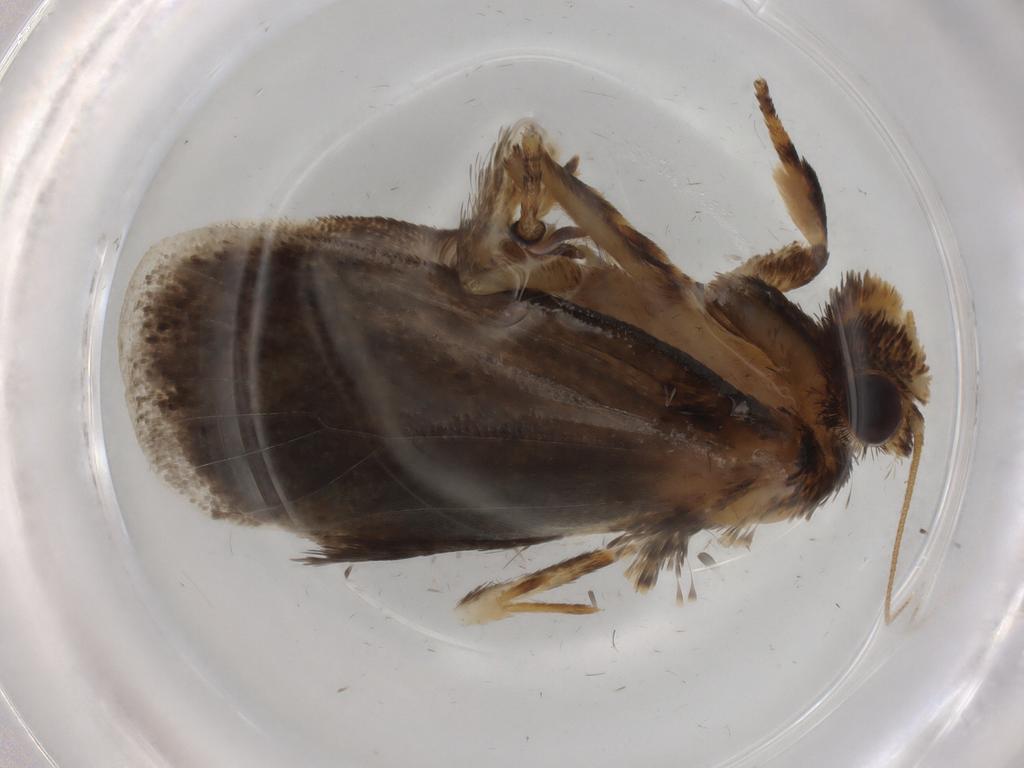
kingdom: Animalia
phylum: Arthropoda
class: Insecta
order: Lepidoptera
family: Tineidae
